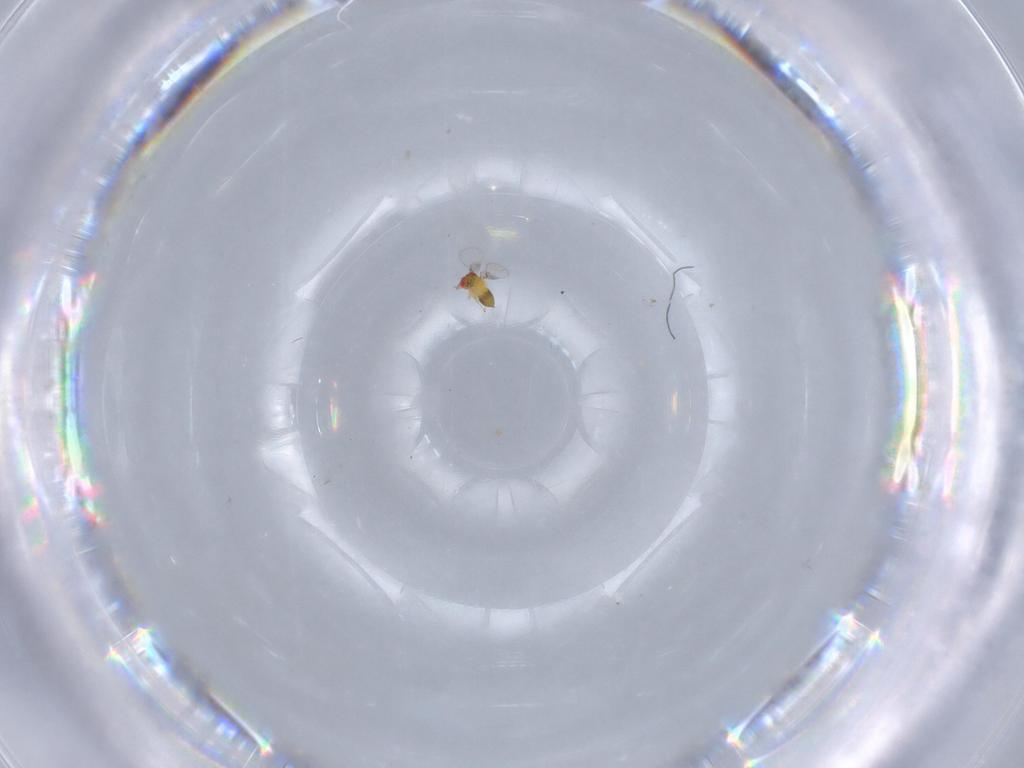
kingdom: Animalia
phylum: Arthropoda
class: Insecta
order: Hymenoptera
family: Trichogrammatidae
